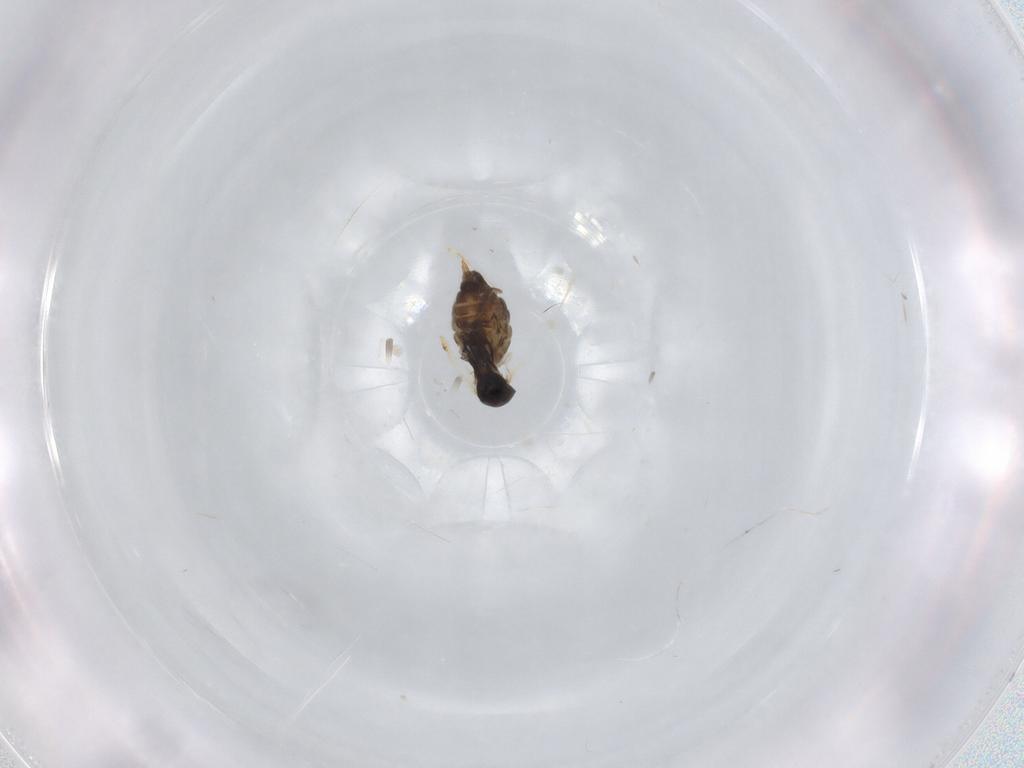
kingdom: Animalia
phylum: Arthropoda
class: Insecta
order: Diptera
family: Cecidomyiidae
